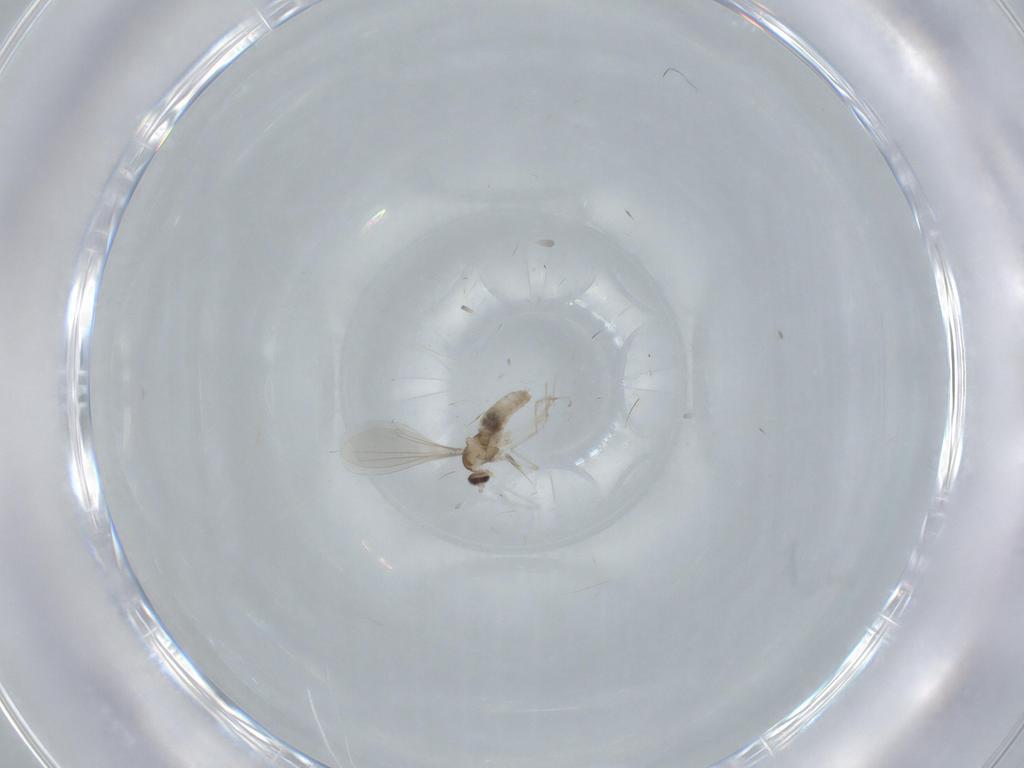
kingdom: Animalia
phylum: Arthropoda
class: Insecta
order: Diptera
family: Cecidomyiidae
